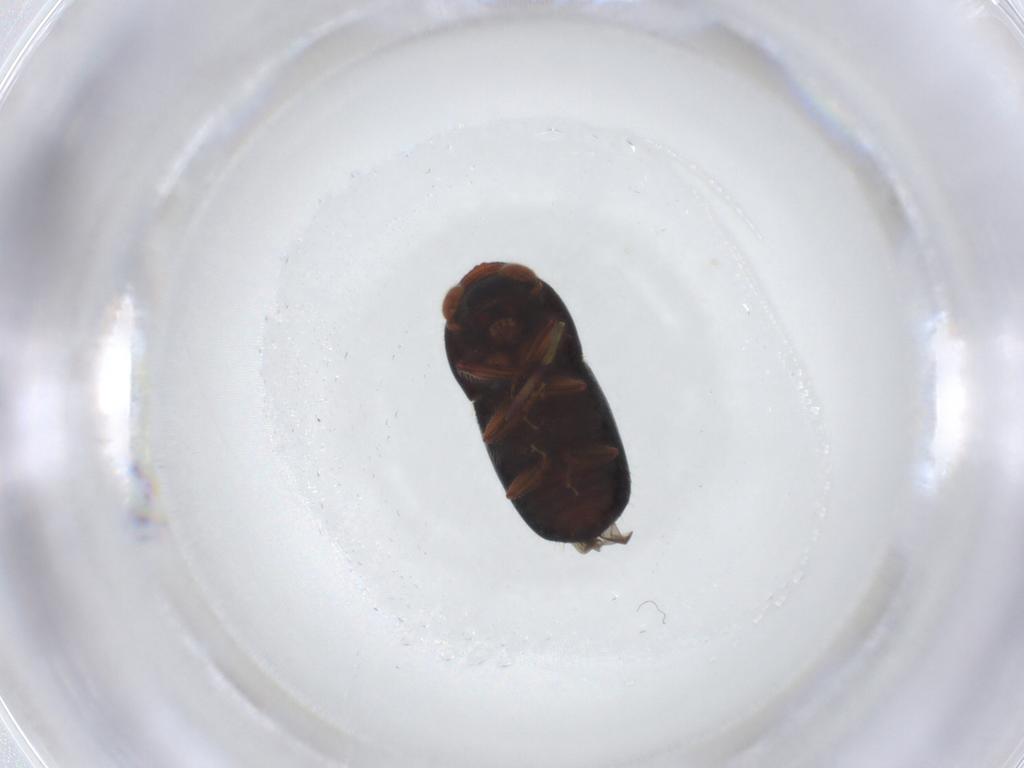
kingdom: Animalia
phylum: Arthropoda
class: Insecta
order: Coleoptera
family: Curculionidae
